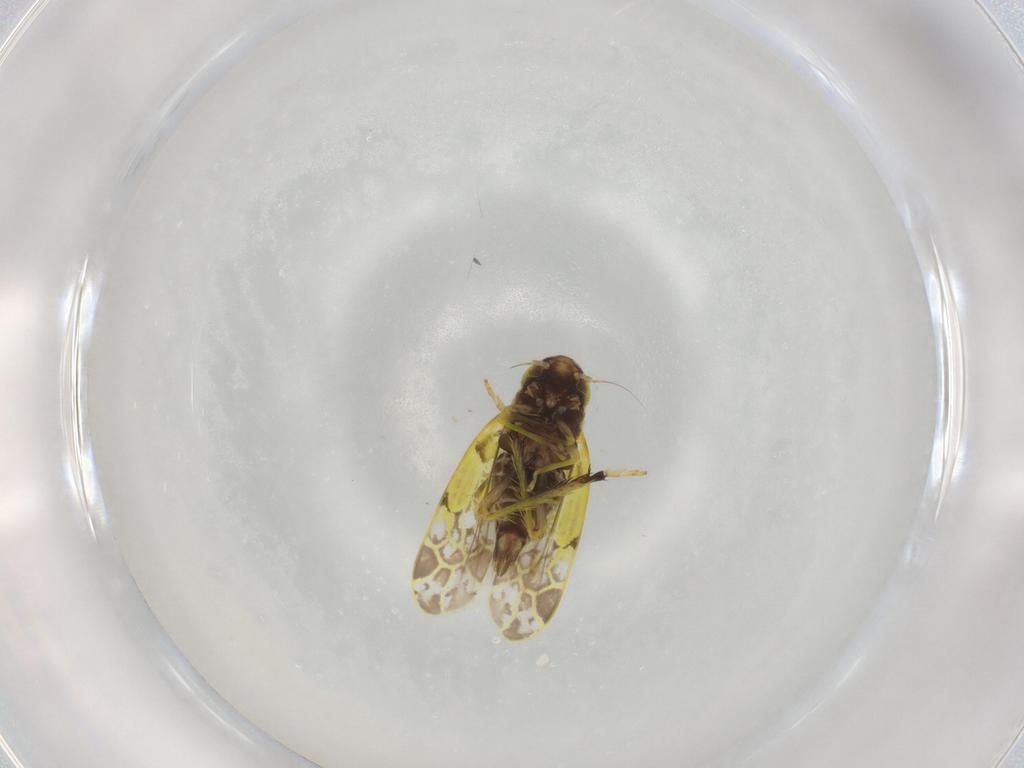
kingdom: Animalia
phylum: Arthropoda
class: Insecta
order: Hemiptera
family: Cicadellidae
